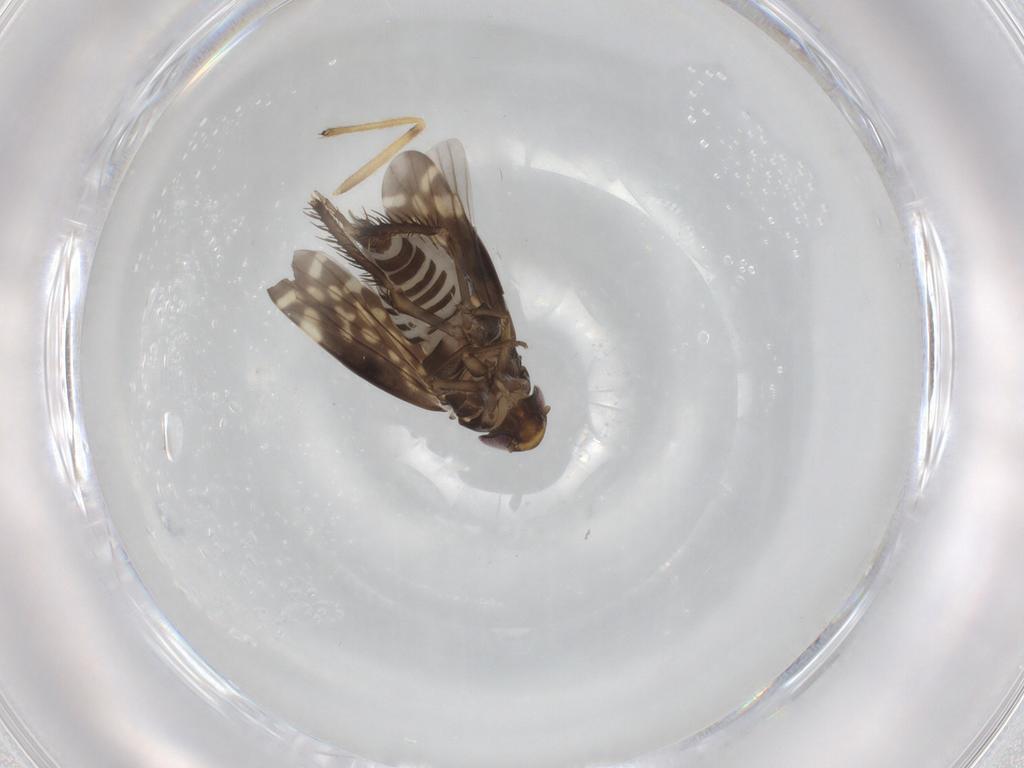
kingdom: Animalia
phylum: Arthropoda
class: Insecta
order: Hemiptera
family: Cicadellidae
